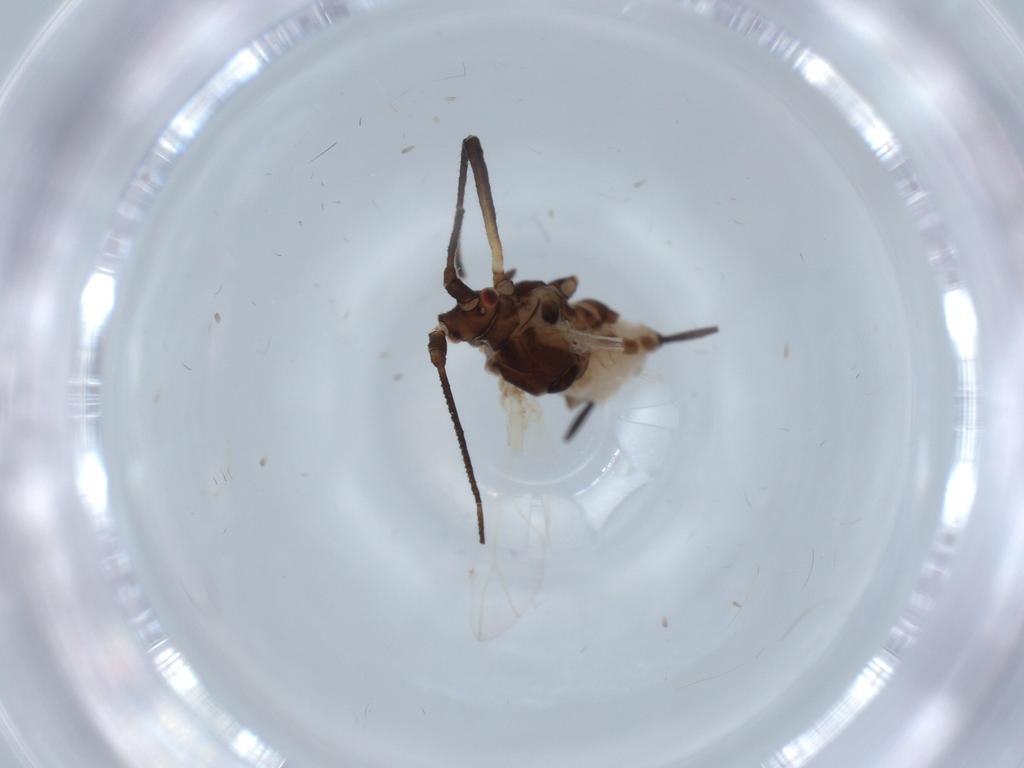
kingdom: Animalia
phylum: Arthropoda
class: Insecta
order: Hemiptera
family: Aphididae
